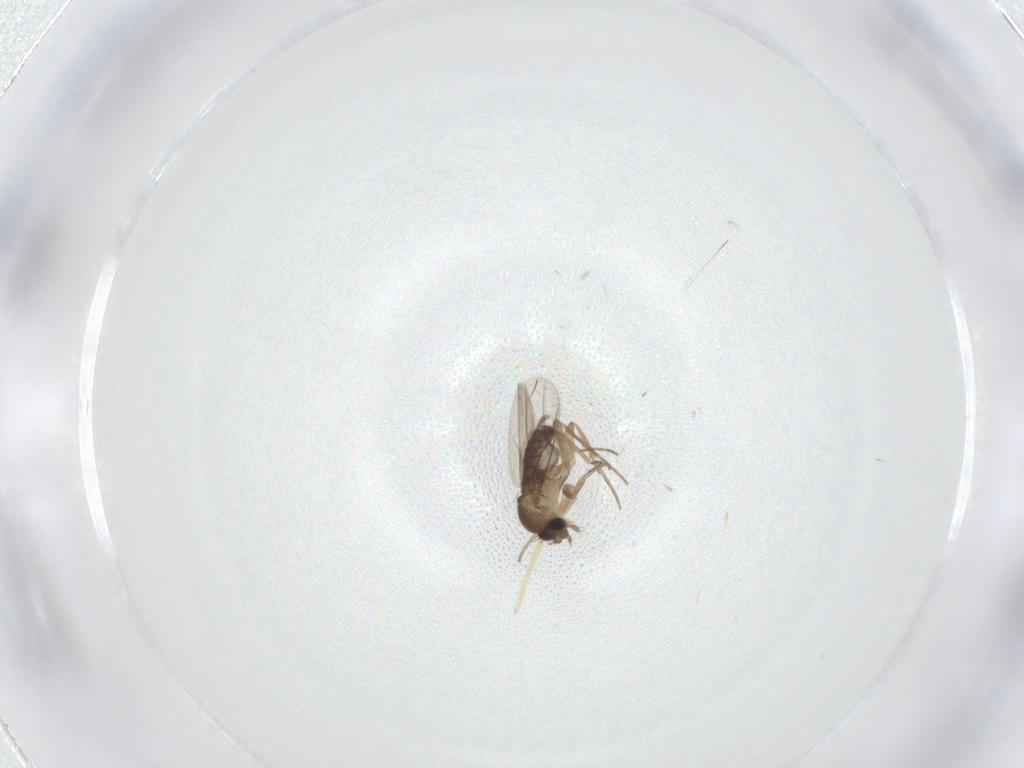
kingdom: Animalia
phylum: Arthropoda
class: Insecta
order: Diptera
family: Phoridae
